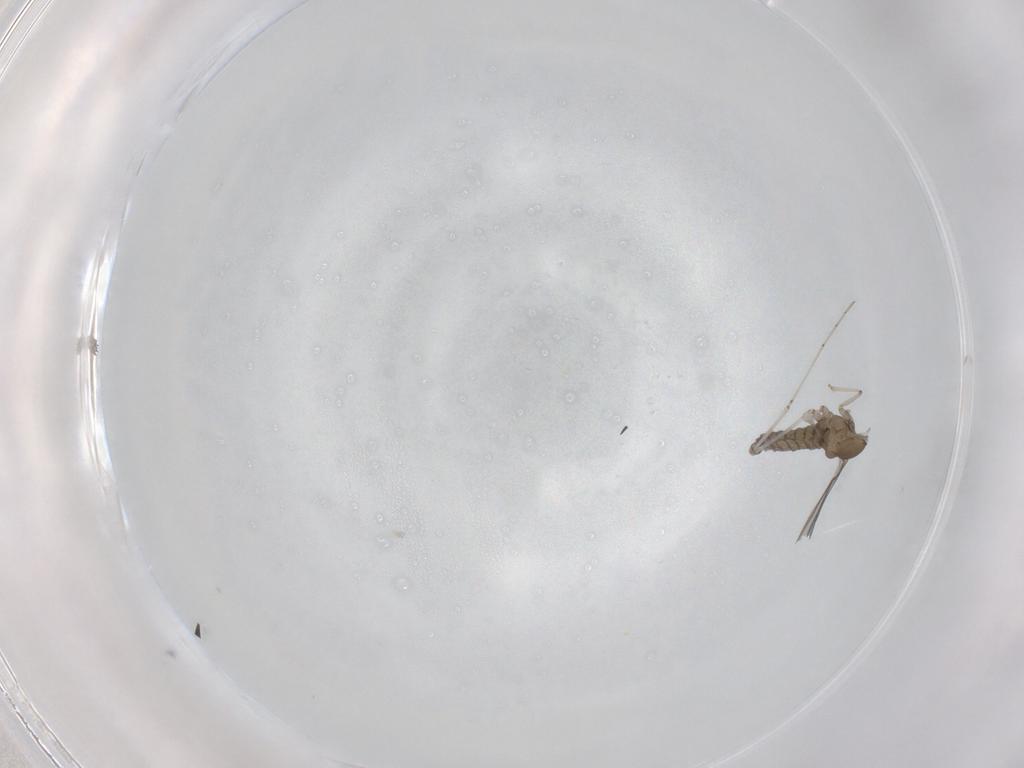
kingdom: Animalia
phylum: Arthropoda
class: Insecta
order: Diptera
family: Cecidomyiidae
